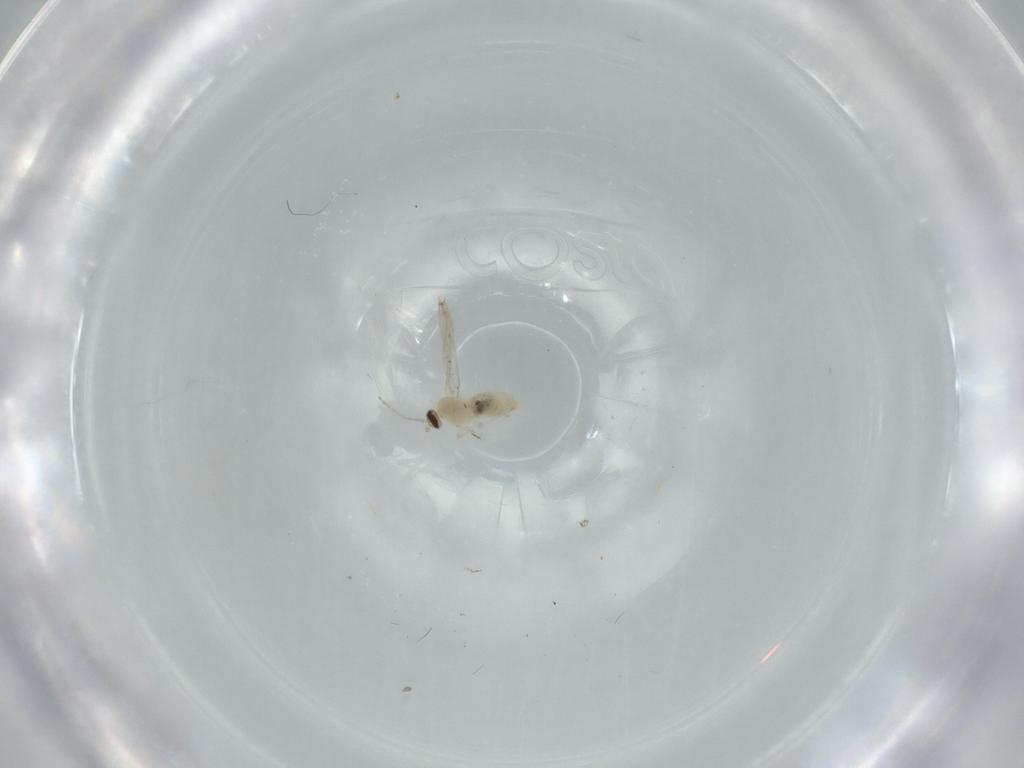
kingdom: Animalia
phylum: Arthropoda
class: Insecta
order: Diptera
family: Cecidomyiidae
